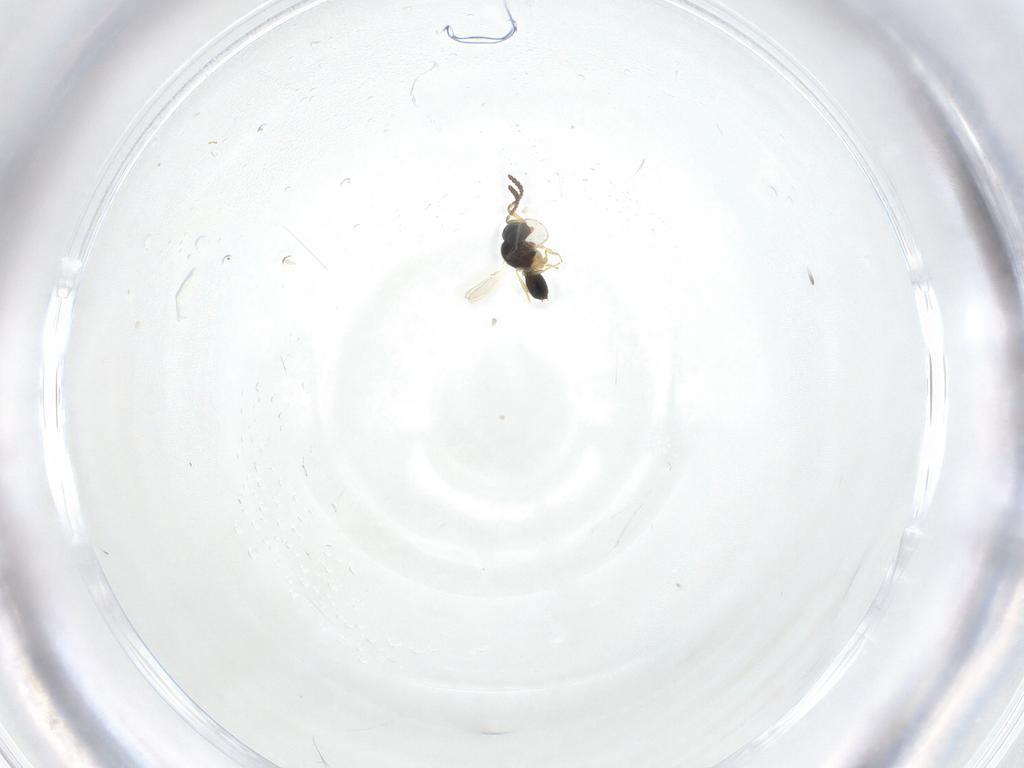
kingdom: Animalia
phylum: Arthropoda
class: Insecta
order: Hymenoptera
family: Scelionidae
